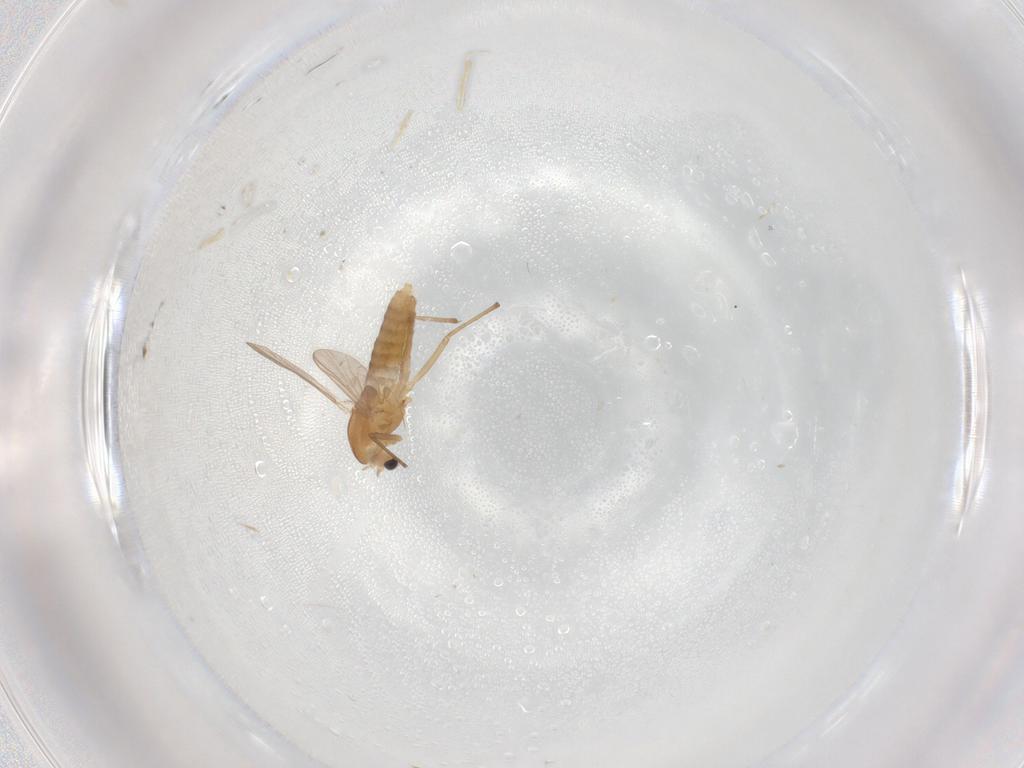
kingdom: Animalia
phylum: Arthropoda
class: Insecta
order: Diptera
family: Chironomidae
